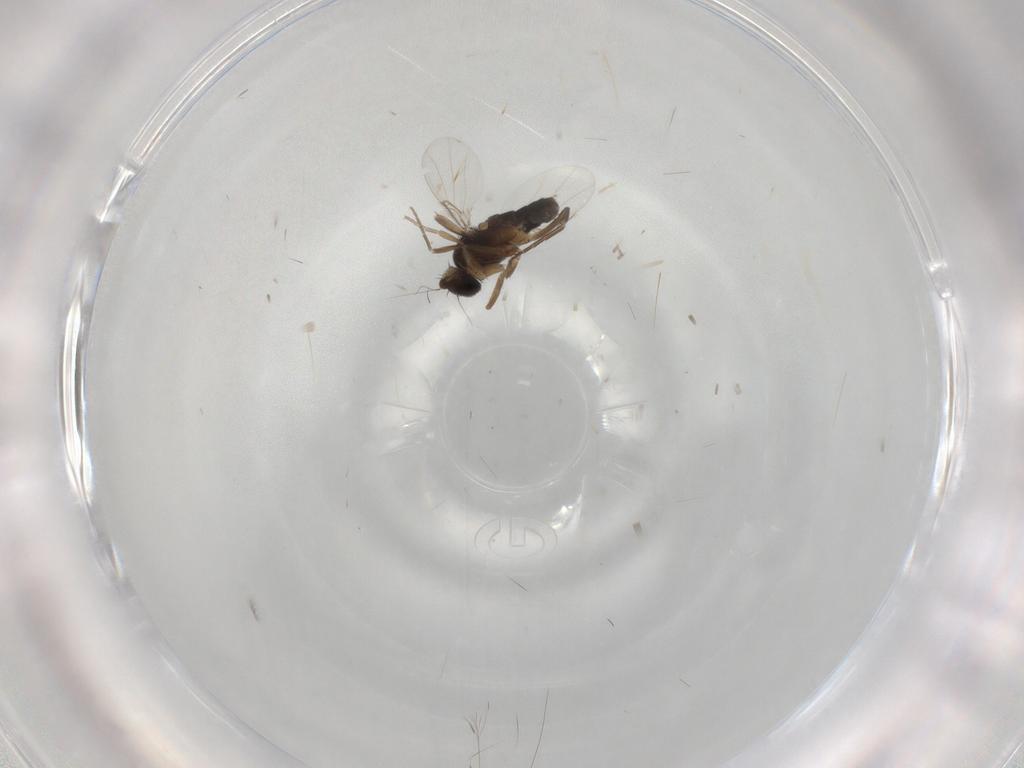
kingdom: Animalia
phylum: Arthropoda
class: Insecta
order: Diptera
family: Phoridae
